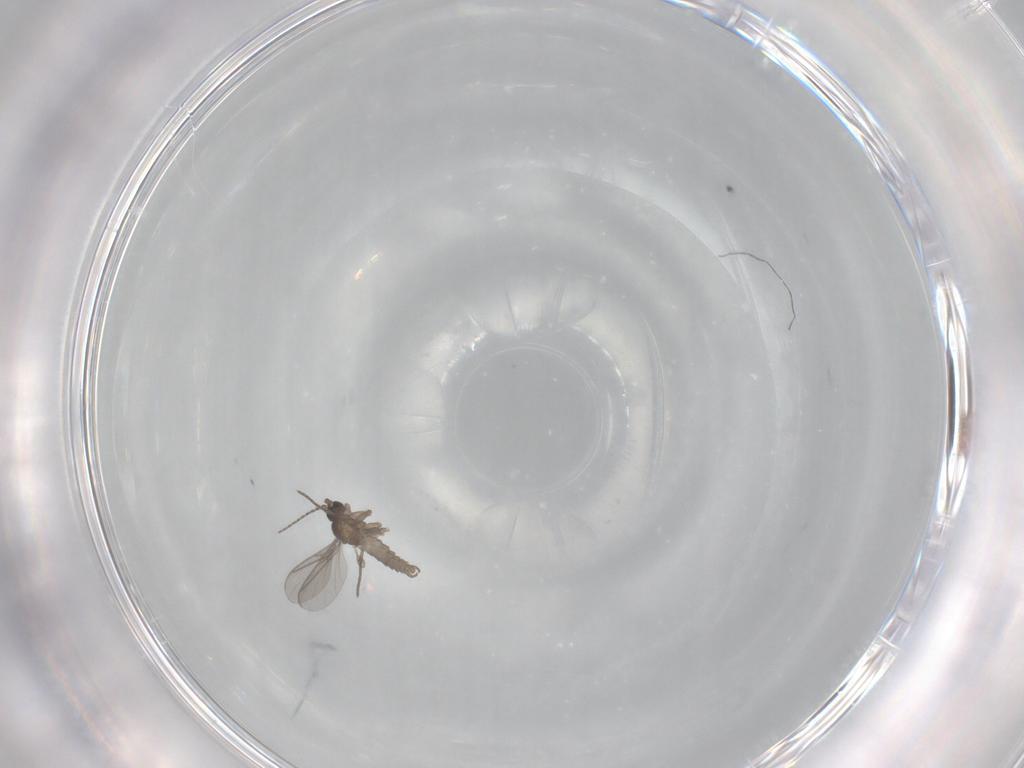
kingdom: Animalia
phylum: Arthropoda
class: Insecta
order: Diptera
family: Sciaridae
